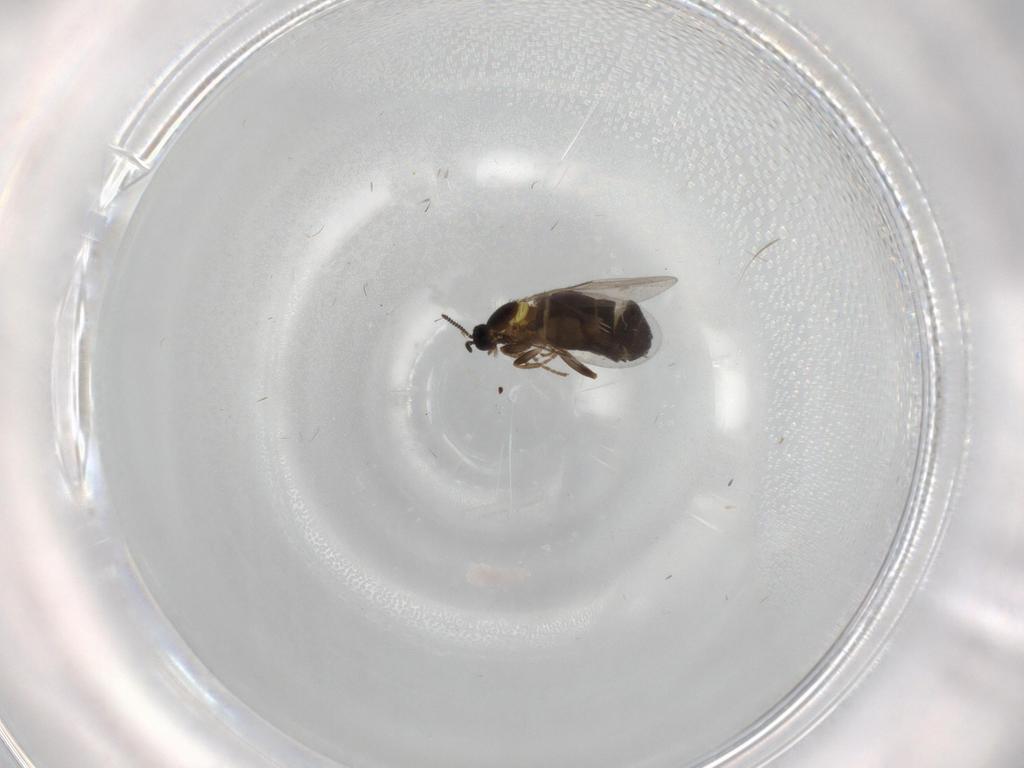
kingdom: Animalia
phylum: Arthropoda
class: Insecta
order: Diptera
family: Scatopsidae
